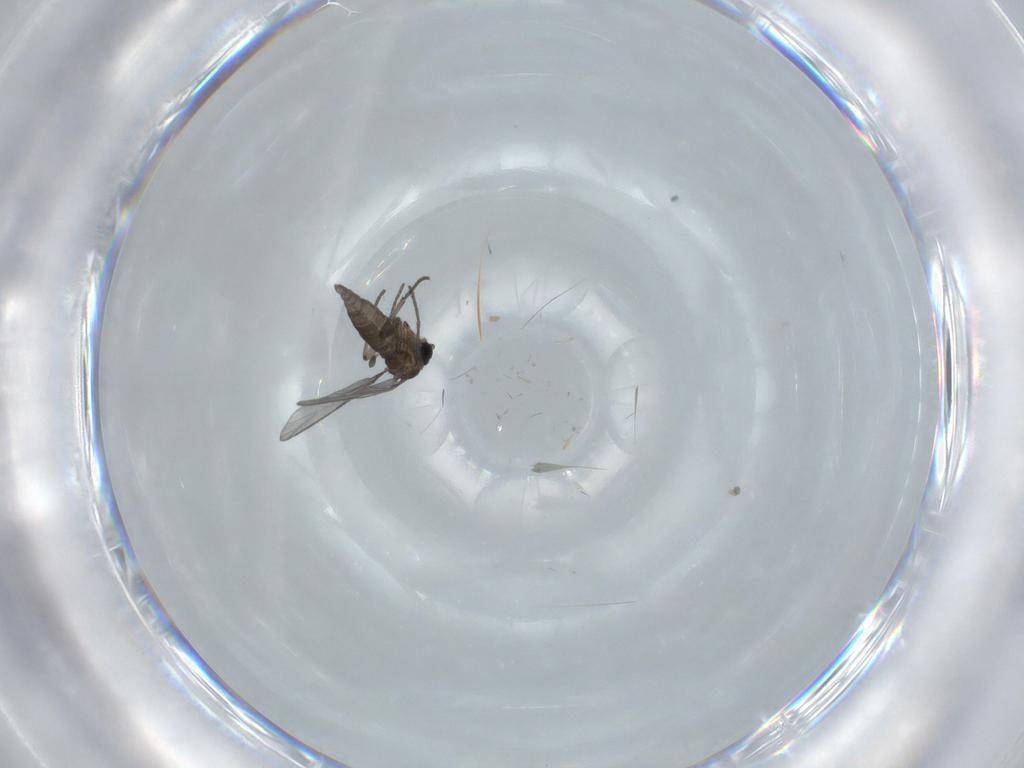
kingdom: Animalia
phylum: Arthropoda
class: Insecta
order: Diptera
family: Phoridae
